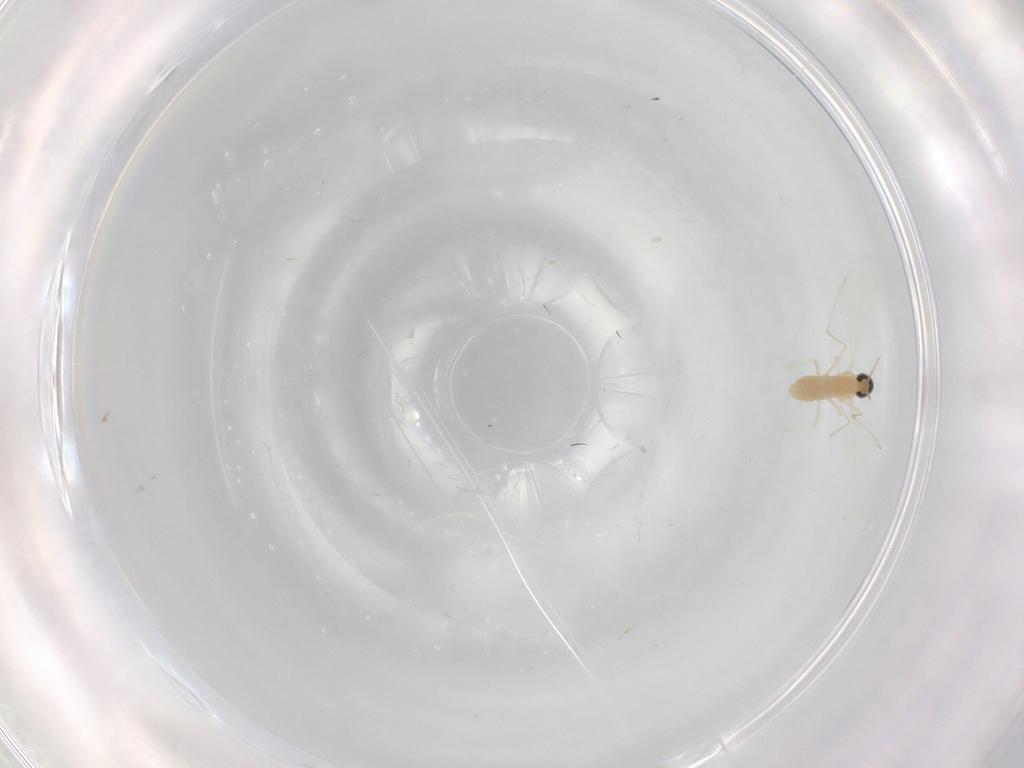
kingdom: Animalia
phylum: Arthropoda
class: Insecta
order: Diptera
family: Cecidomyiidae
